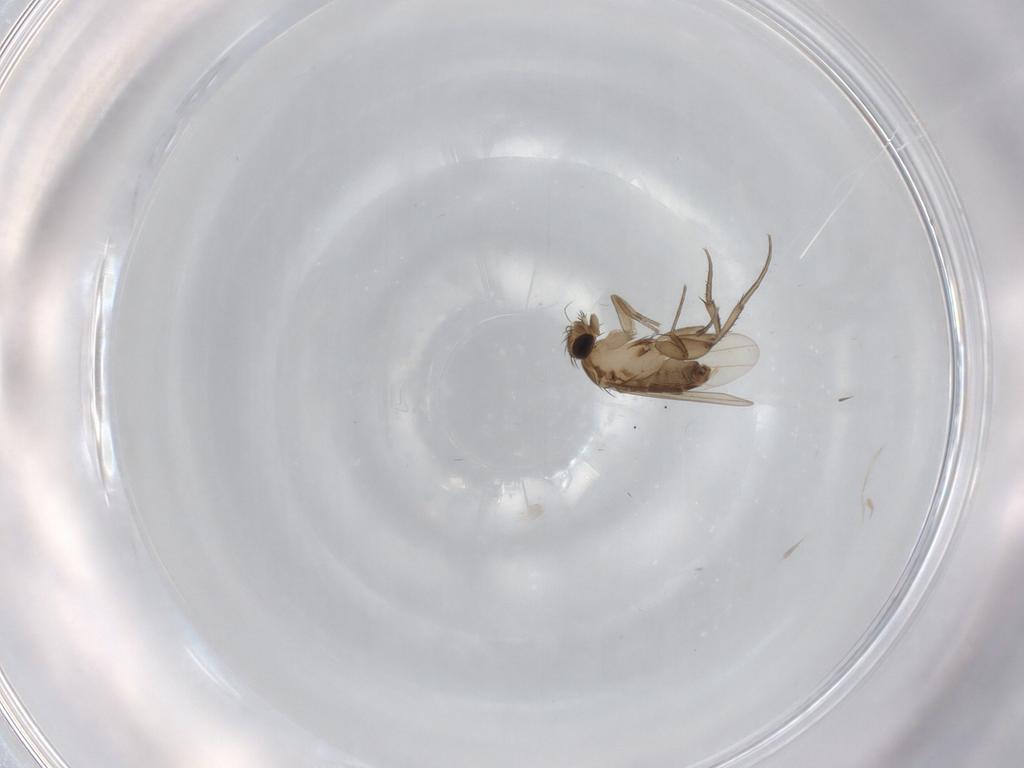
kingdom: Animalia
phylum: Arthropoda
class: Insecta
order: Diptera
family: Phoridae
